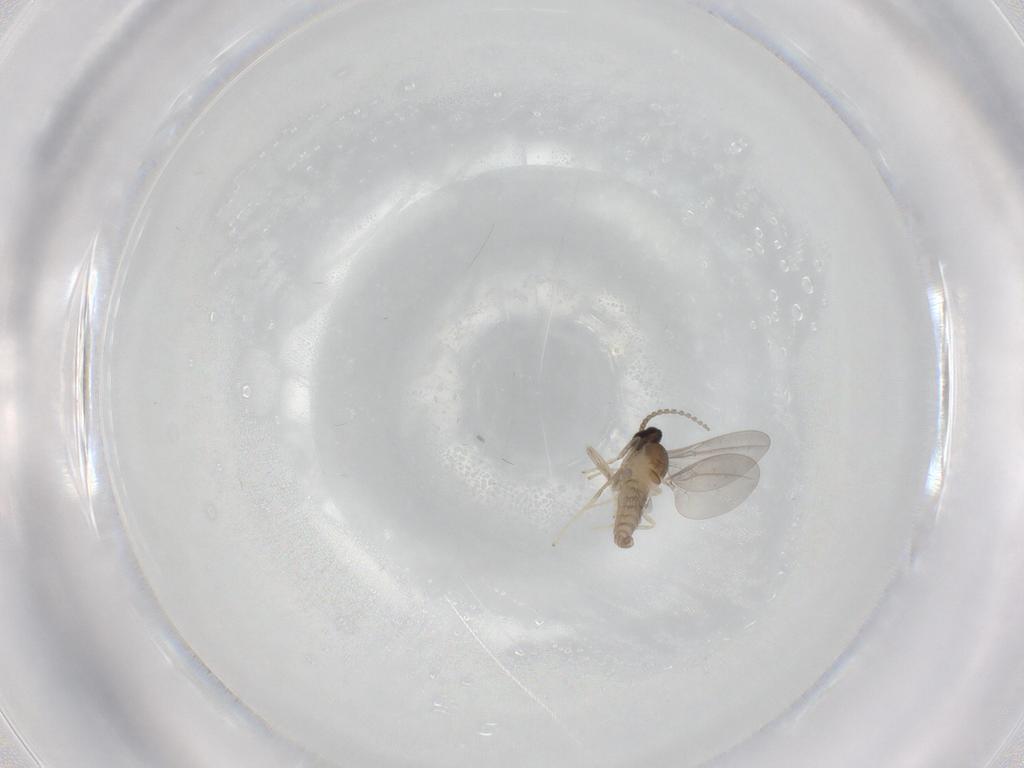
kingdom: Animalia
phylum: Arthropoda
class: Insecta
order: Diptera
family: Cecidomyiidae
